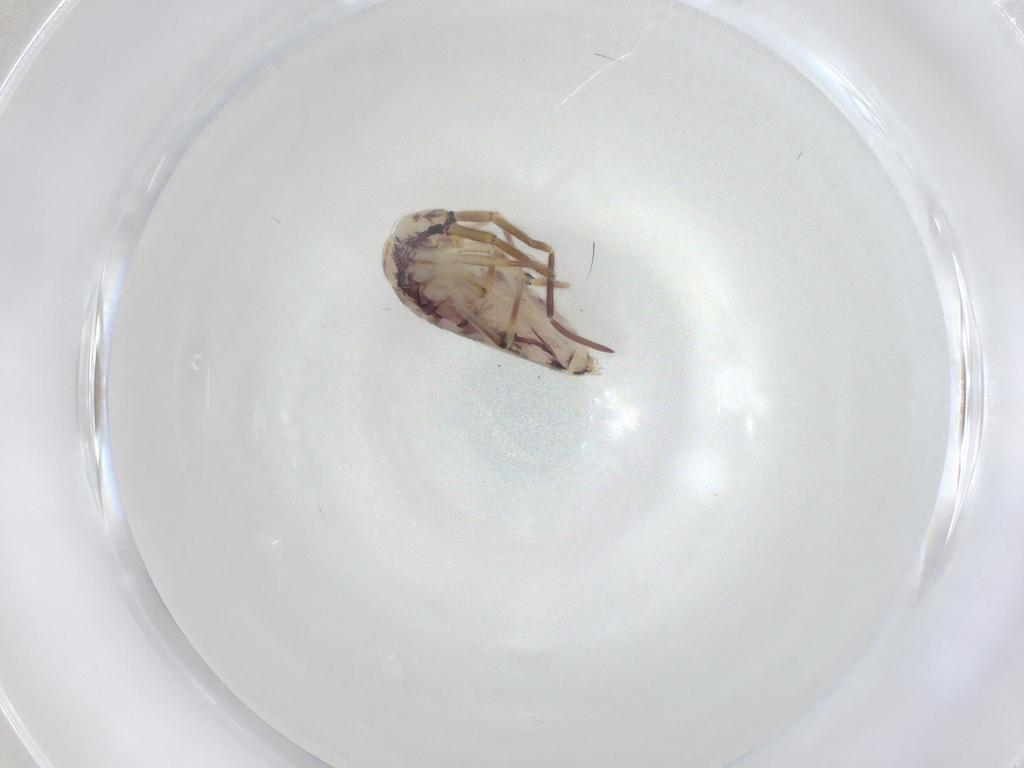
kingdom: Animalia
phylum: Arthropoda
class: Collembola
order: Entomobryomorpha
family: Entomobryidae
